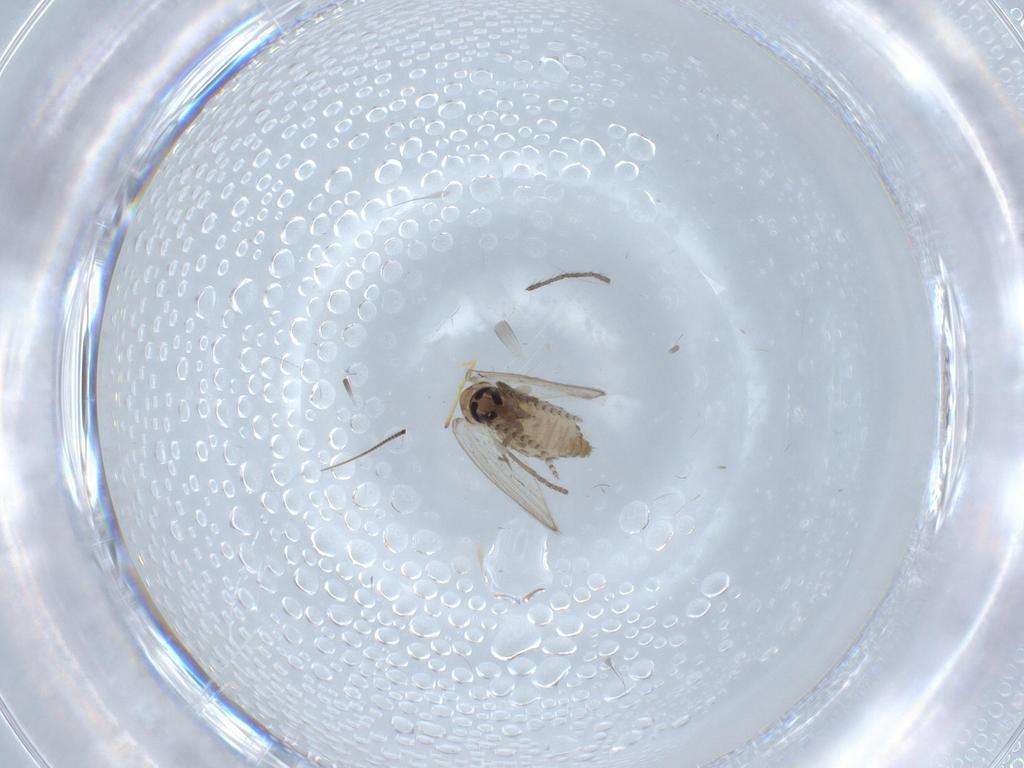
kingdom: Animalia
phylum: Arthropoda
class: Insecta
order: Diptera
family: Psychodidae
